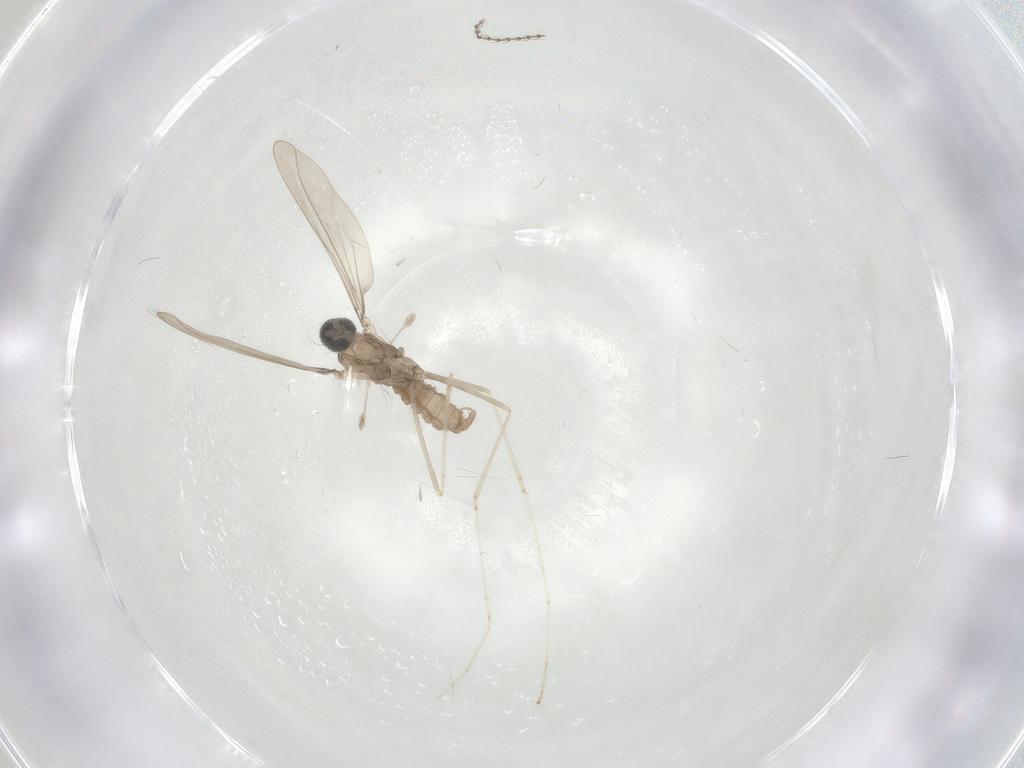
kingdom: Animalia
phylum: Arthropoda
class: Insecta
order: Diptera
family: Cecidomyiidae
